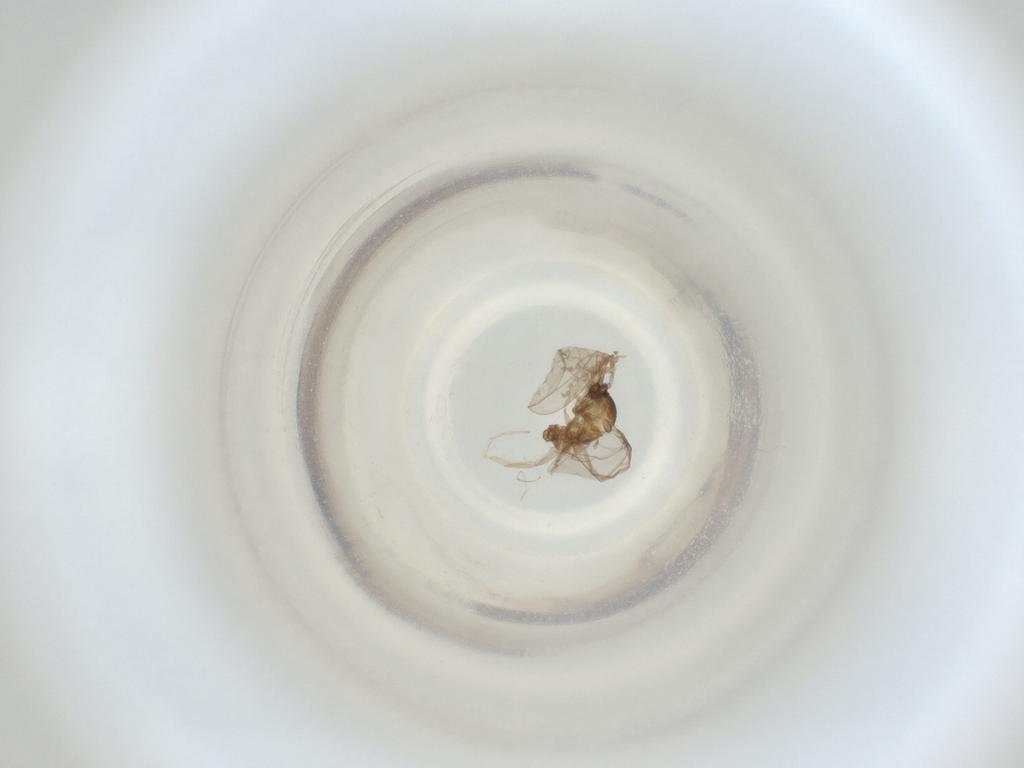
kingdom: Animalia
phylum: Arthropoda
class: Insecta
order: Diptera
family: Cecidomyiidae
